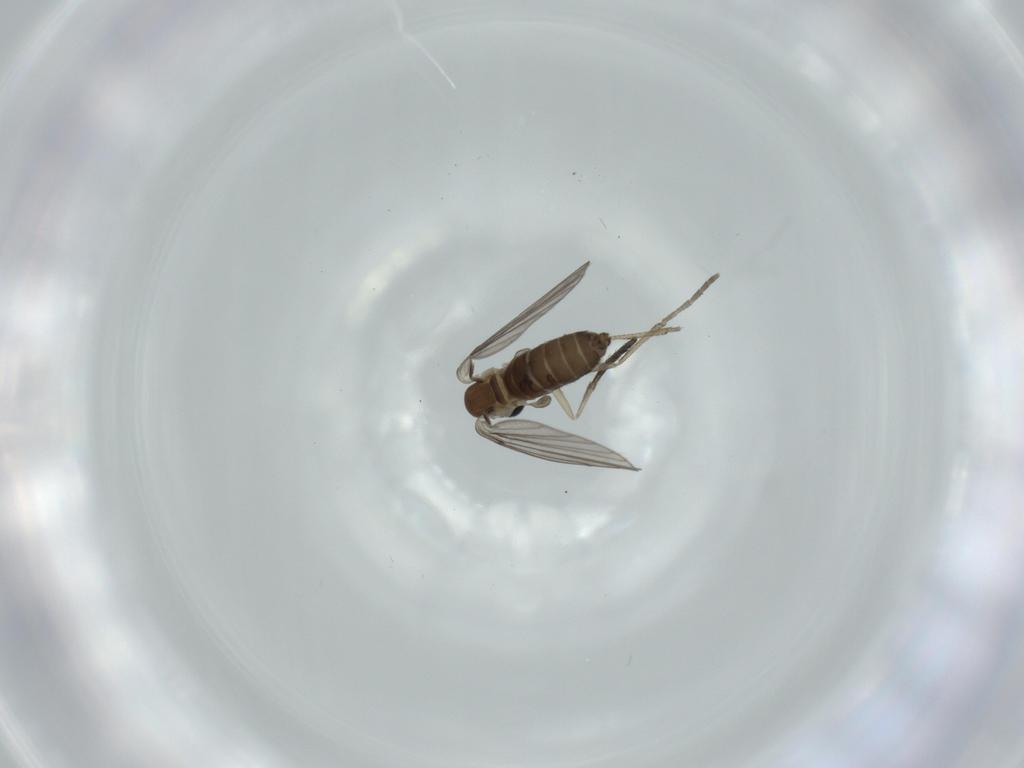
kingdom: Animalia
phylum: Arthropoda
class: Insecta
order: Diptera
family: Psychodidae
